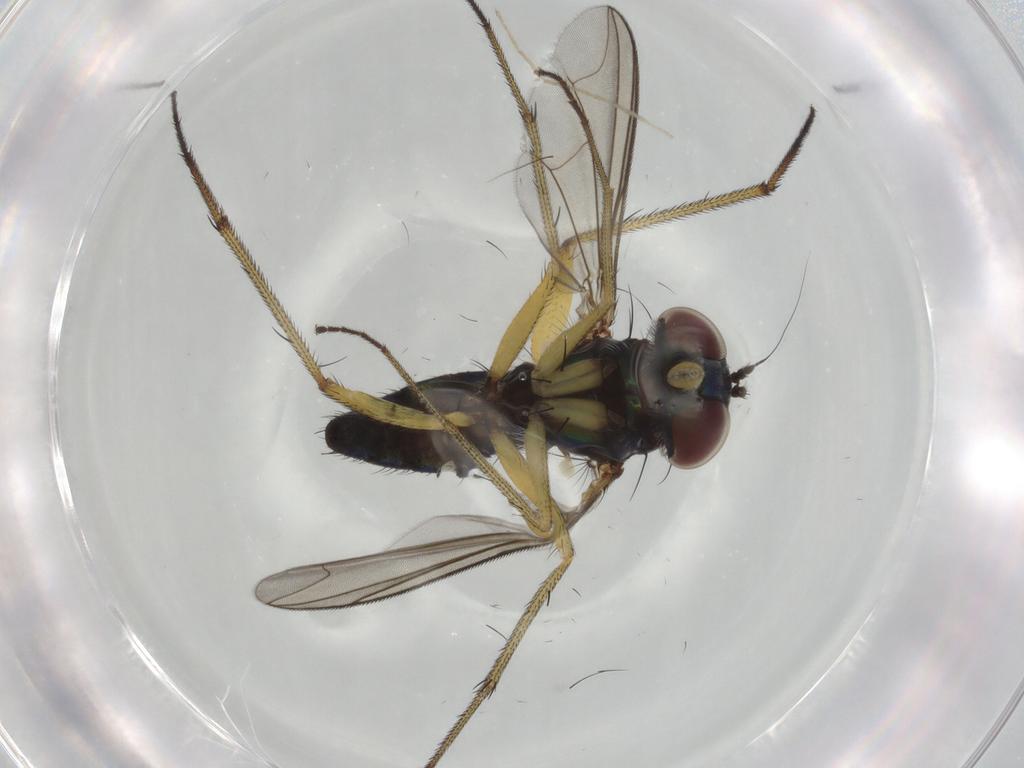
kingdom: Animalia
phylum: Arthropoda
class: Insecta
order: Diptera
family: Dolichopodidae
